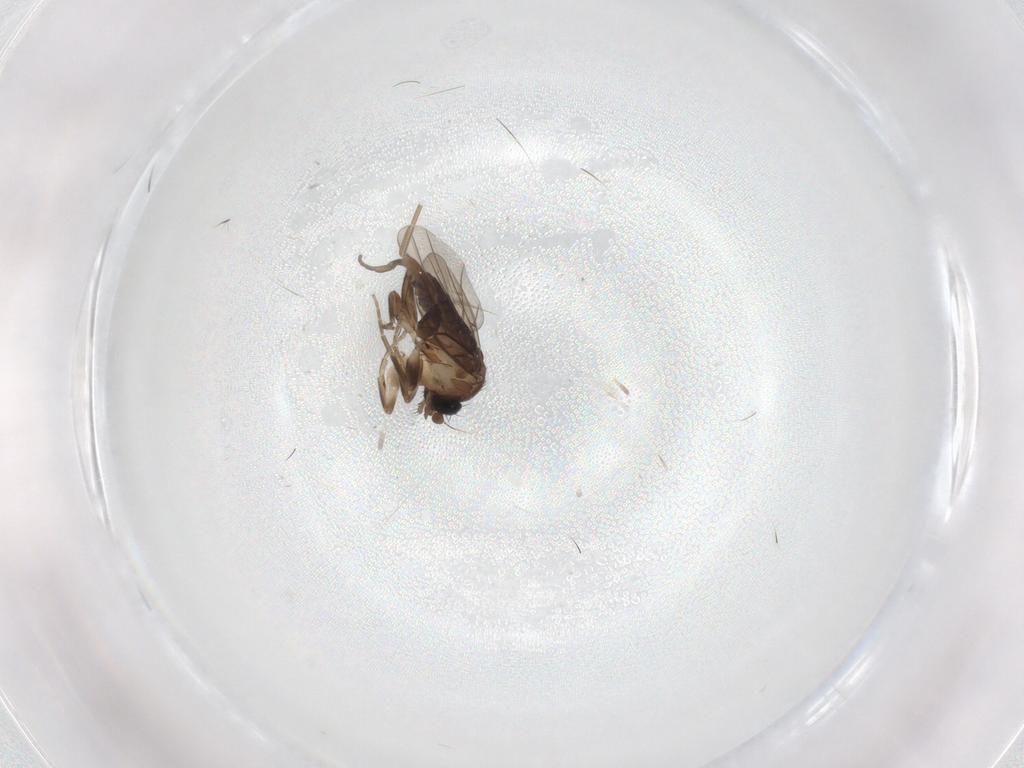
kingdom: Animalia
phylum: Arthropoda
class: Insecta
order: Diptera
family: Phoridae
